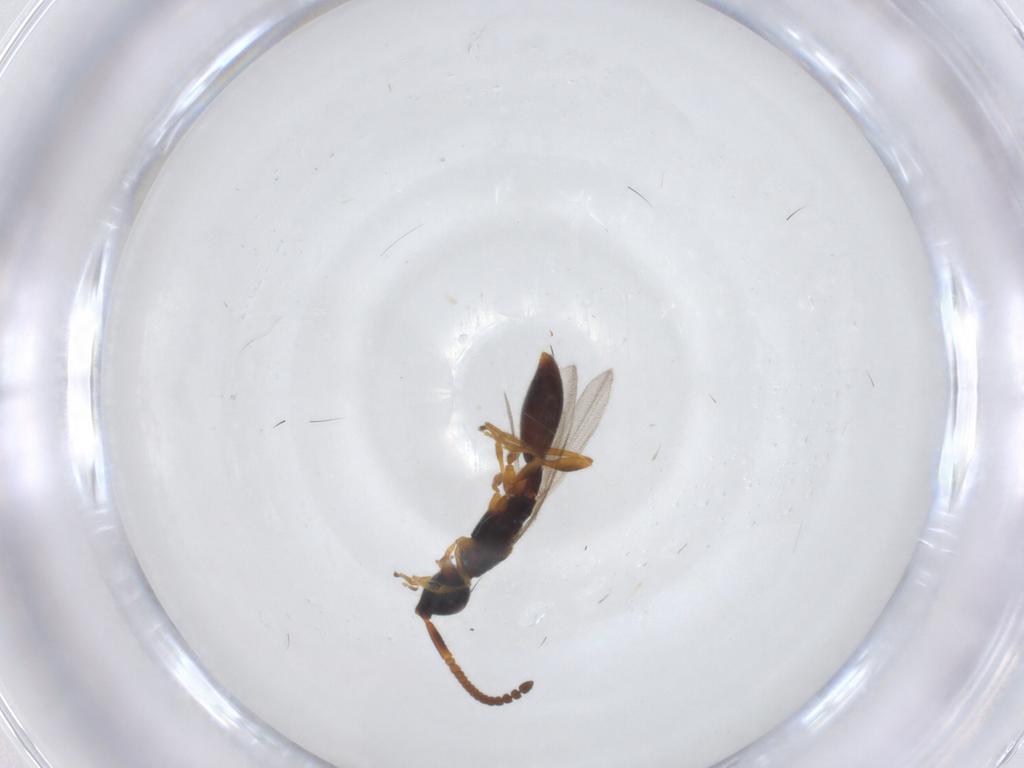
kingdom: Animalia
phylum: Arthropoda
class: Insecta
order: Hymenoptera
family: Diapriidae
